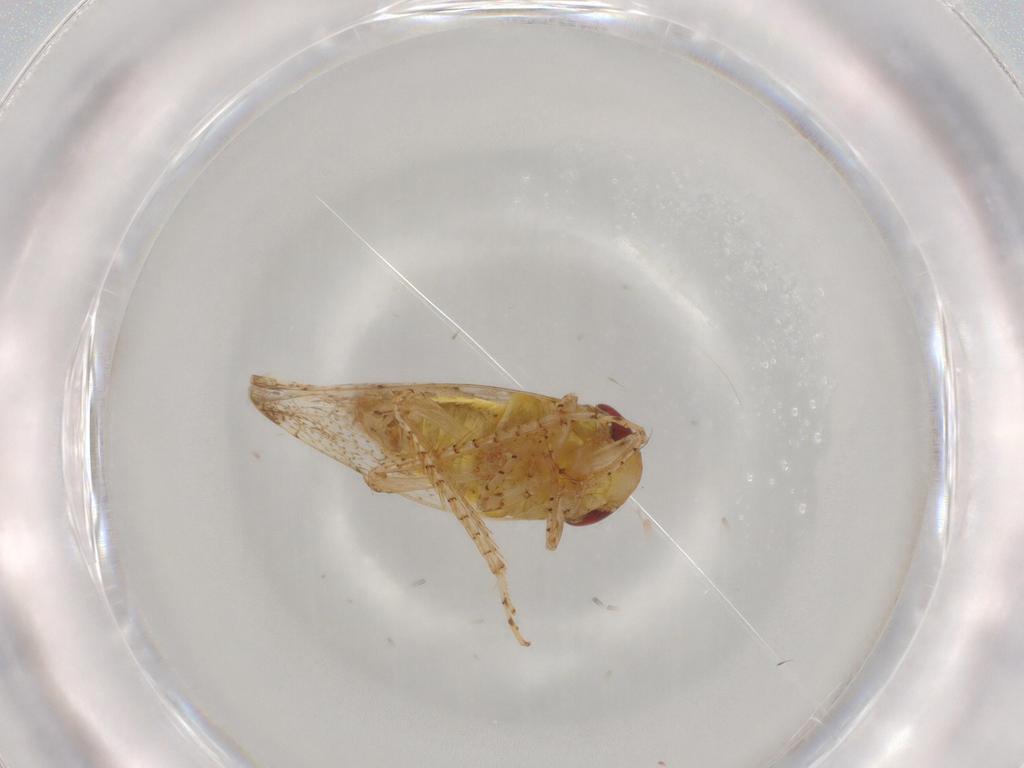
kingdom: Animalia
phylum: Arthropoda
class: Insecta
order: Hemiptera
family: Cicadellidae
